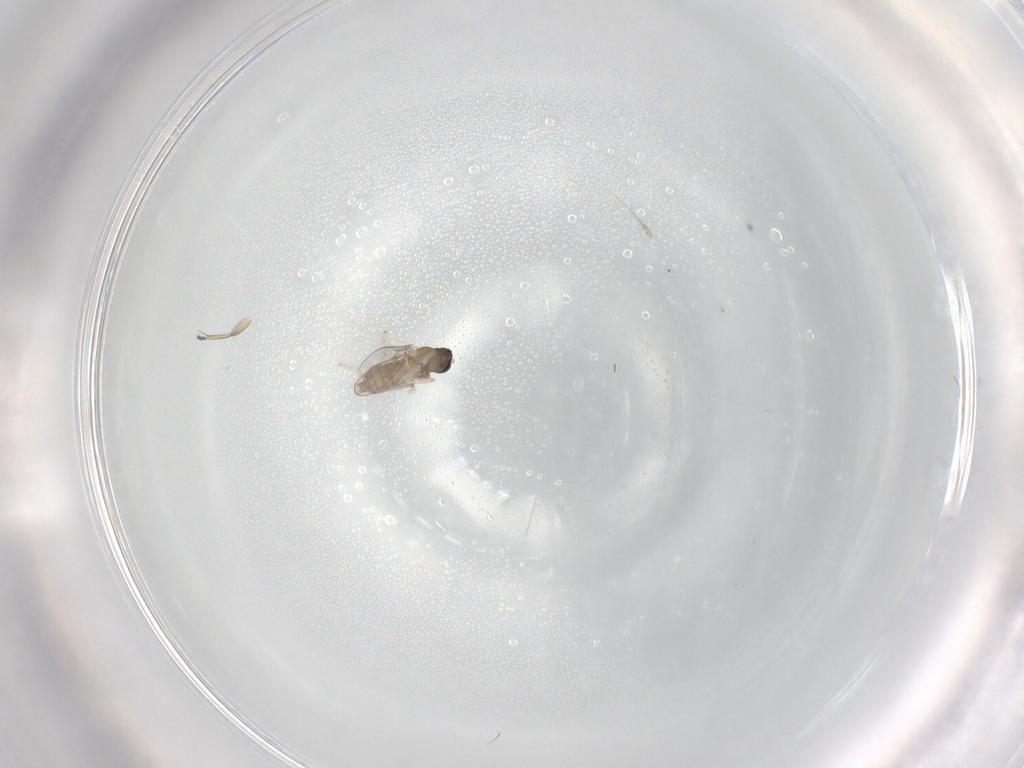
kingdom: Animalia
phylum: Arthropoda
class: Insecta
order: Diptera
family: Cecidomyiidae
